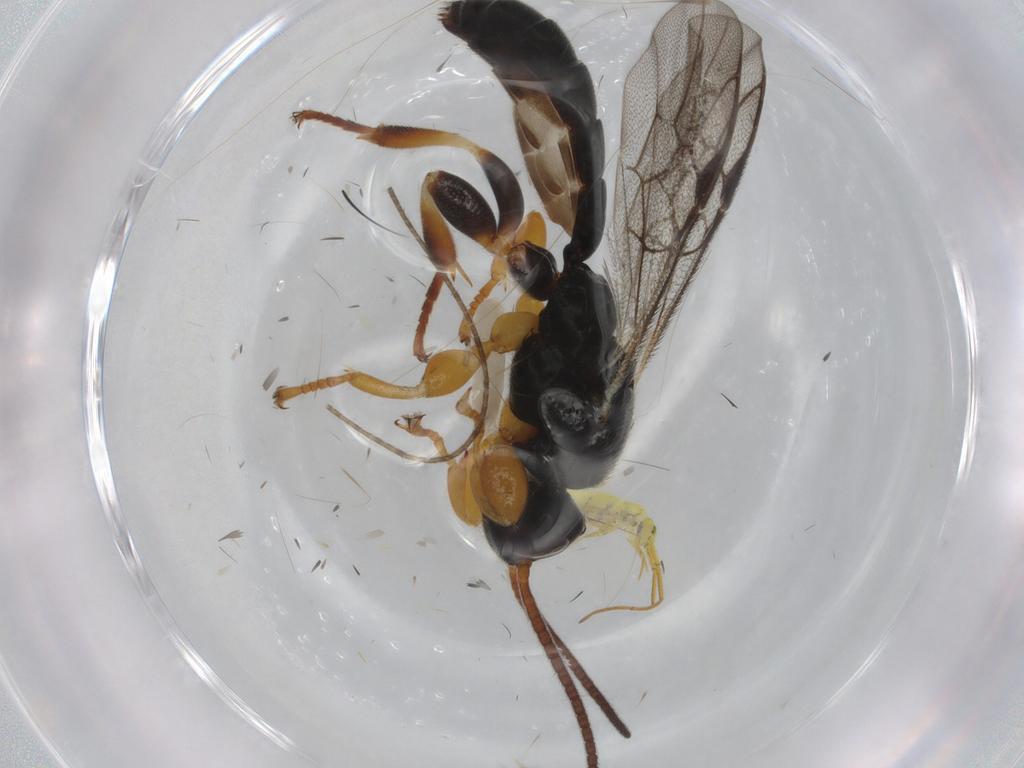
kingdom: Animalia
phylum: Arthropoda
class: Insecta
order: Hymenoptera
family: Ichneumonidae
